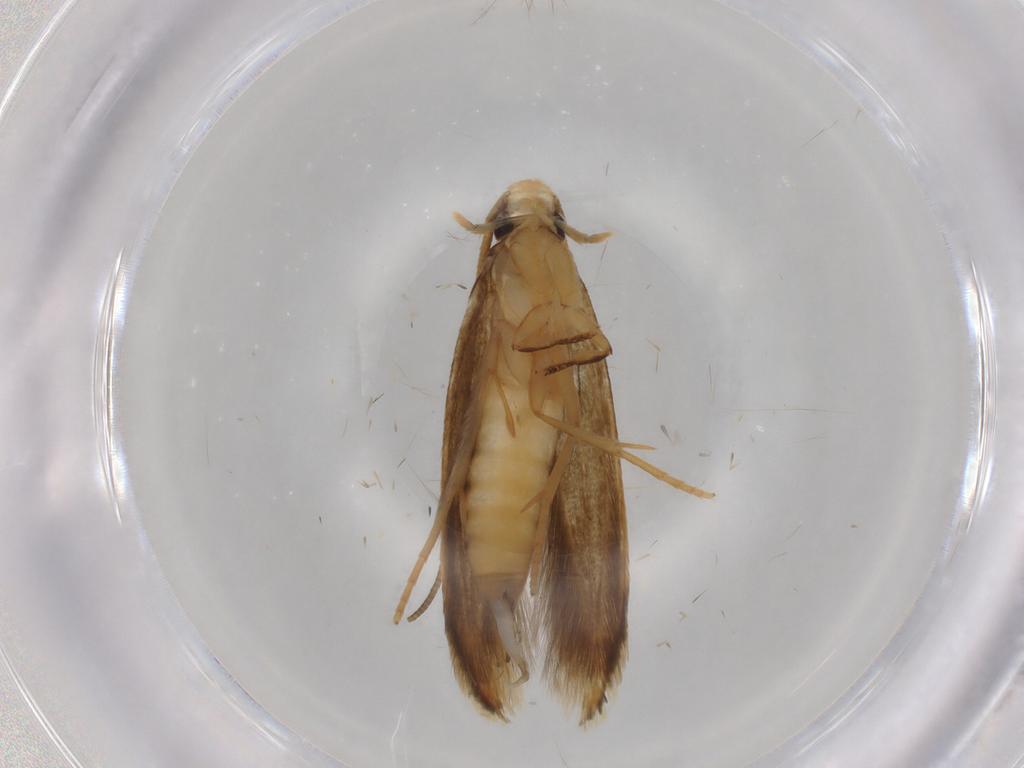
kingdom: Animalia
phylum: Arthropoda
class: Insecta
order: Lepidoptera
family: Tineidae
